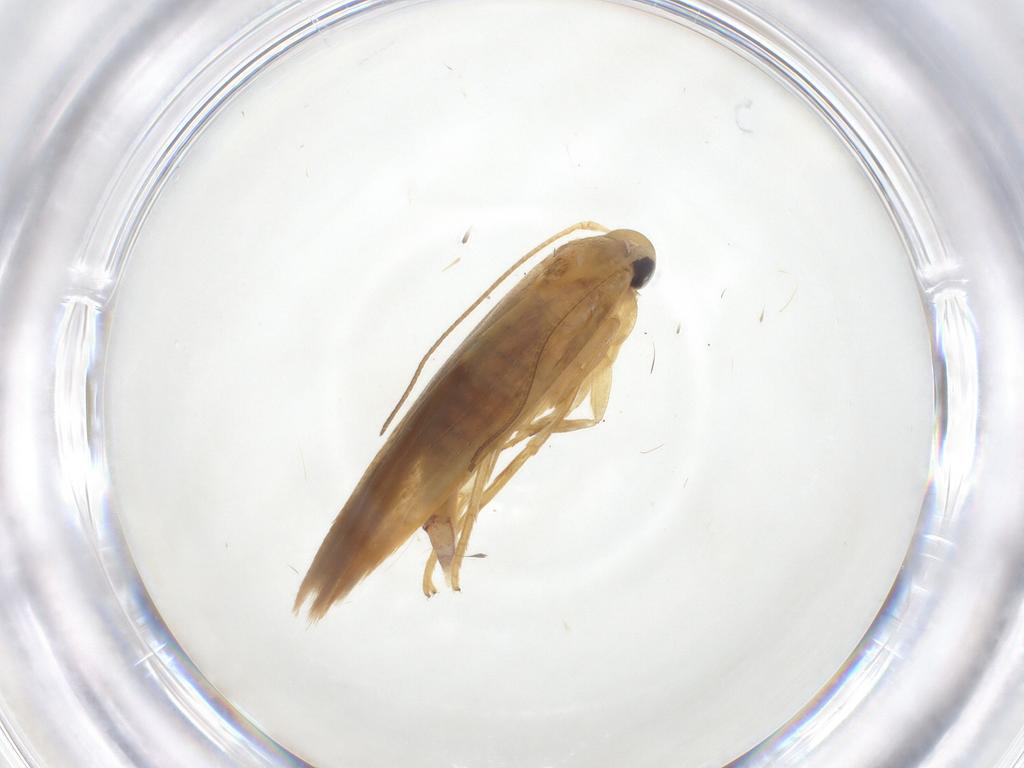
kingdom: Animalia
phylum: Arthropoda
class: Insecta
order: Lepidoptera
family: Stathmopodidae
